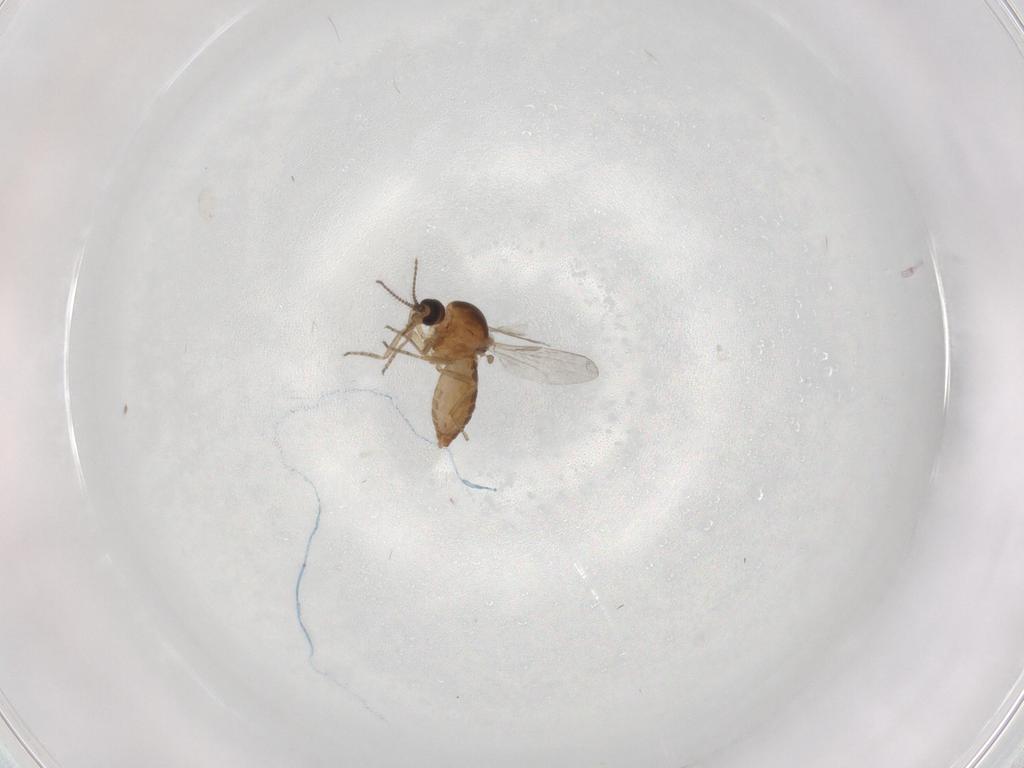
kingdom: Animalia
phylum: Arthropoda
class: Insecta
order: Diptera
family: Ceratopogonidae
